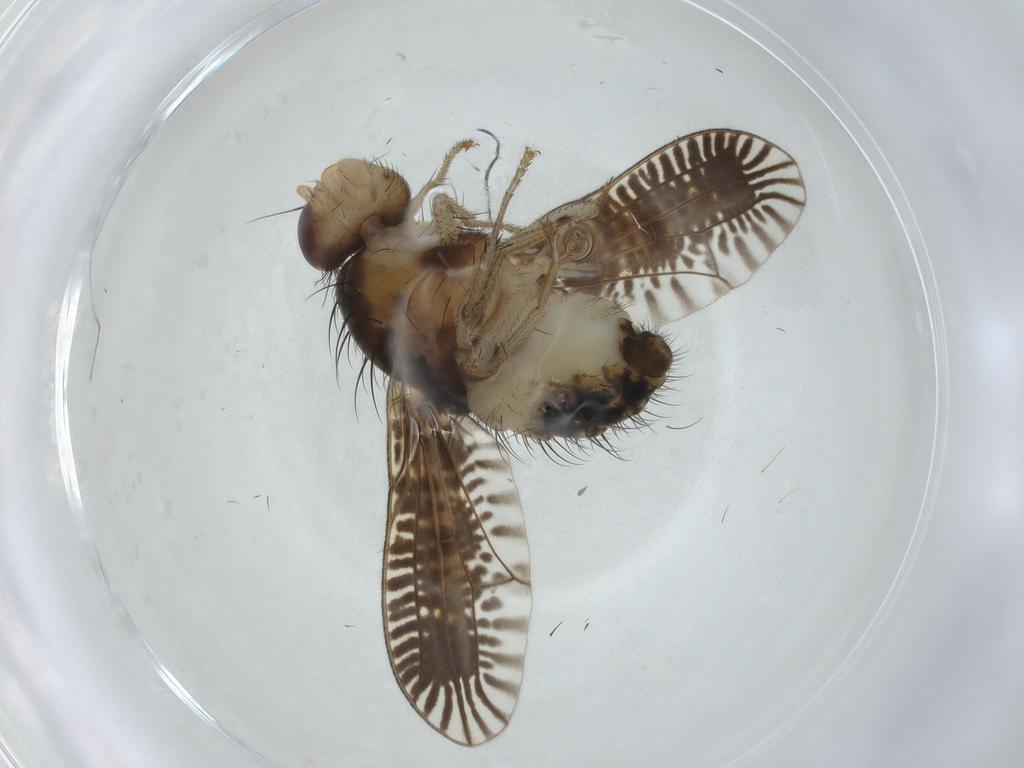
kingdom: Animalia
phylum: Arthropoda
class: Insecta
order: Diptera
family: Lauxaniidae
